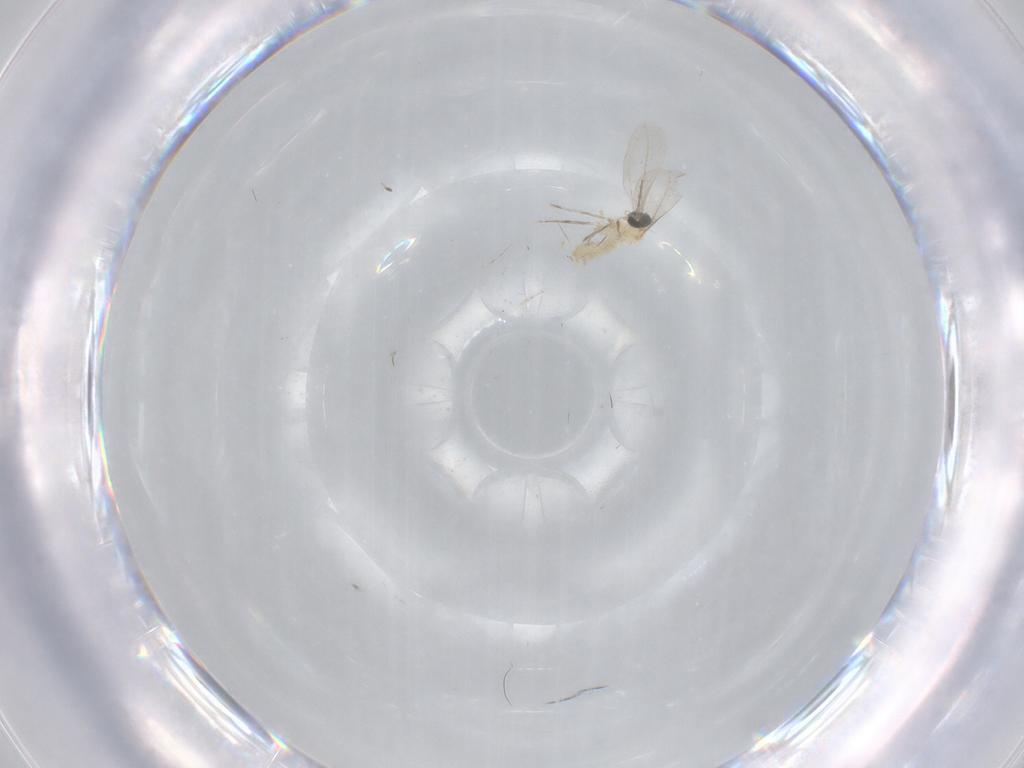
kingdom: Animalia
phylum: Arthropoda
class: Insecta
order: Diptera
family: Cecidomyiidae
